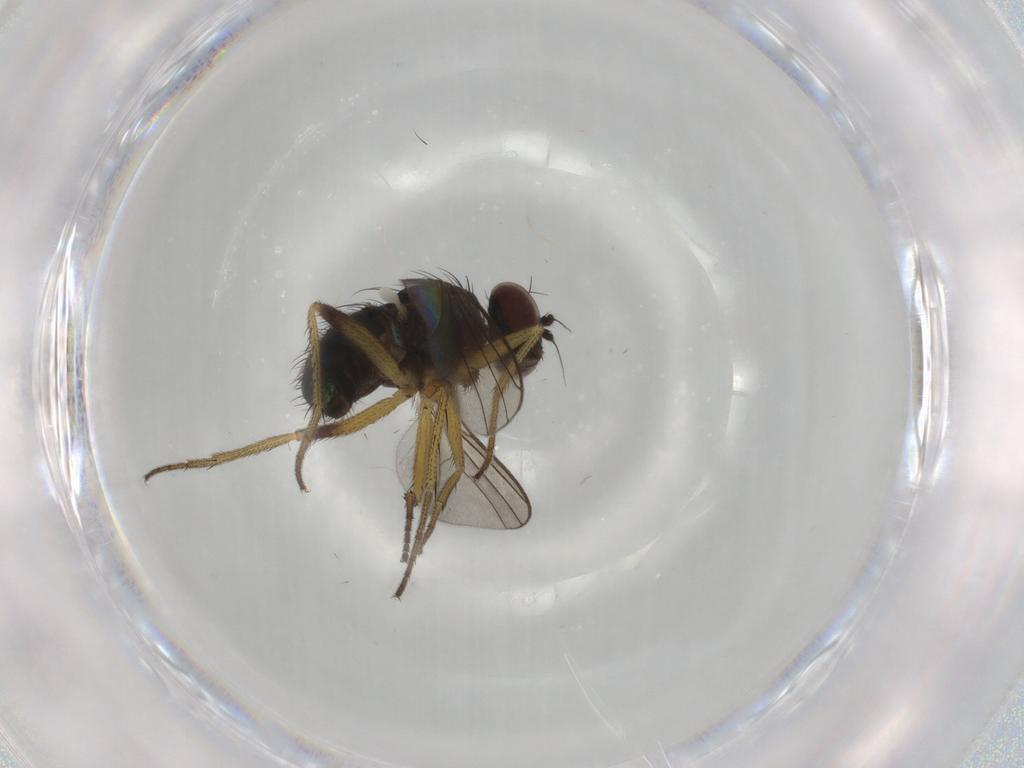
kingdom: Animalia
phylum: Arthropoda
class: Insecta
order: Diptera
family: Dolichopodidae
